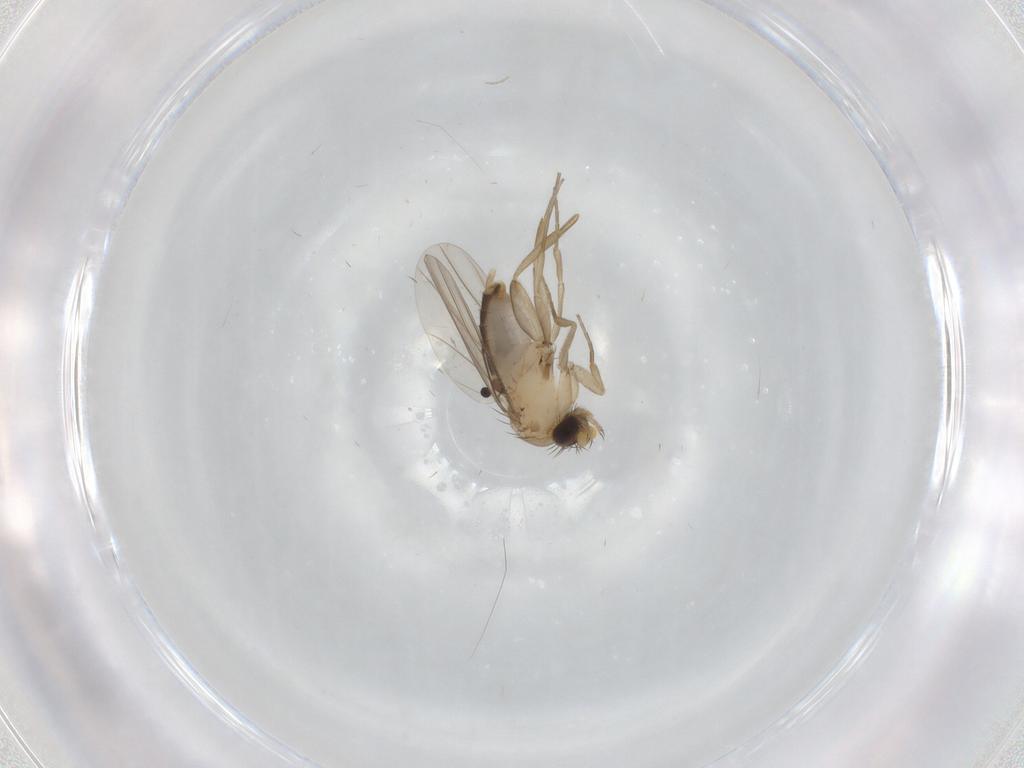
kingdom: Animalia
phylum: Arthropoda
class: Insecta
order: Diptera
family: Phoridae
